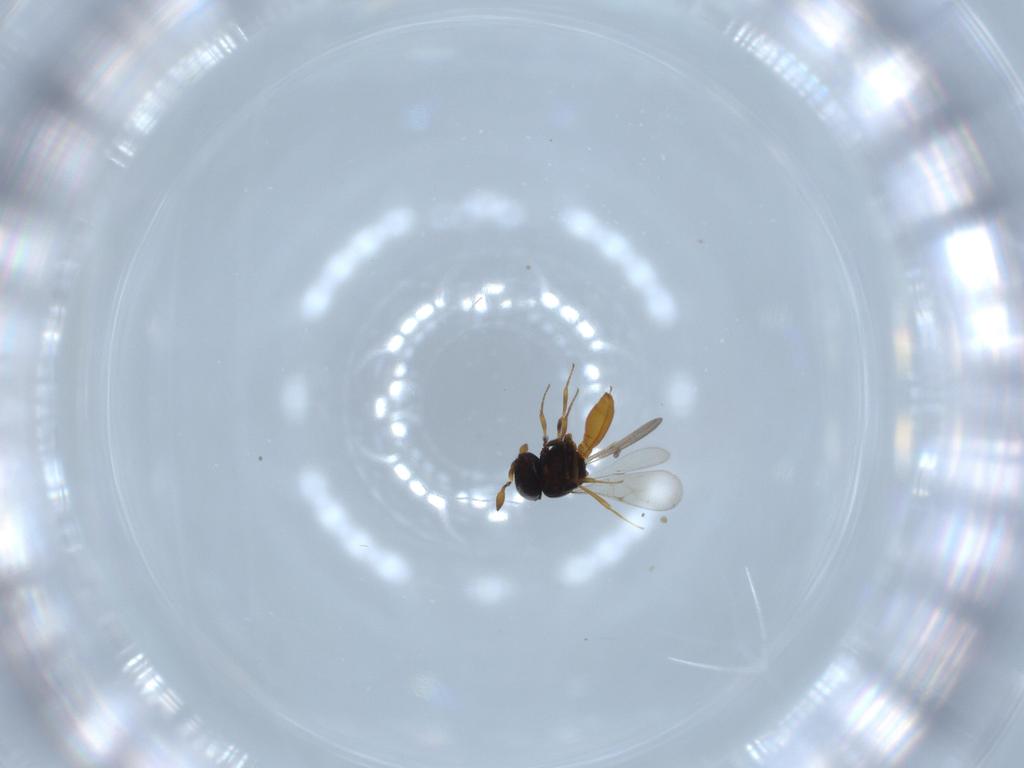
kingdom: Animalia
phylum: Arthropoda
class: Insecta
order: Hymenoptera
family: Scelionidae
